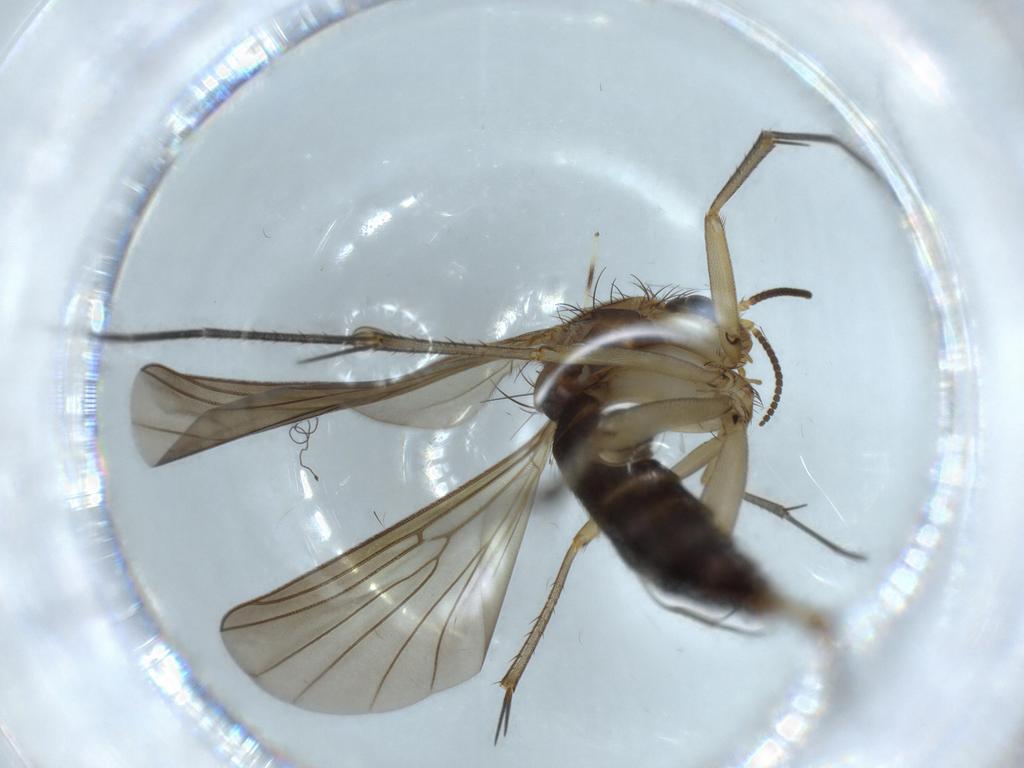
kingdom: Animalia
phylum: Arthropoda
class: Insecta
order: Diptera
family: Mycetophilidae
